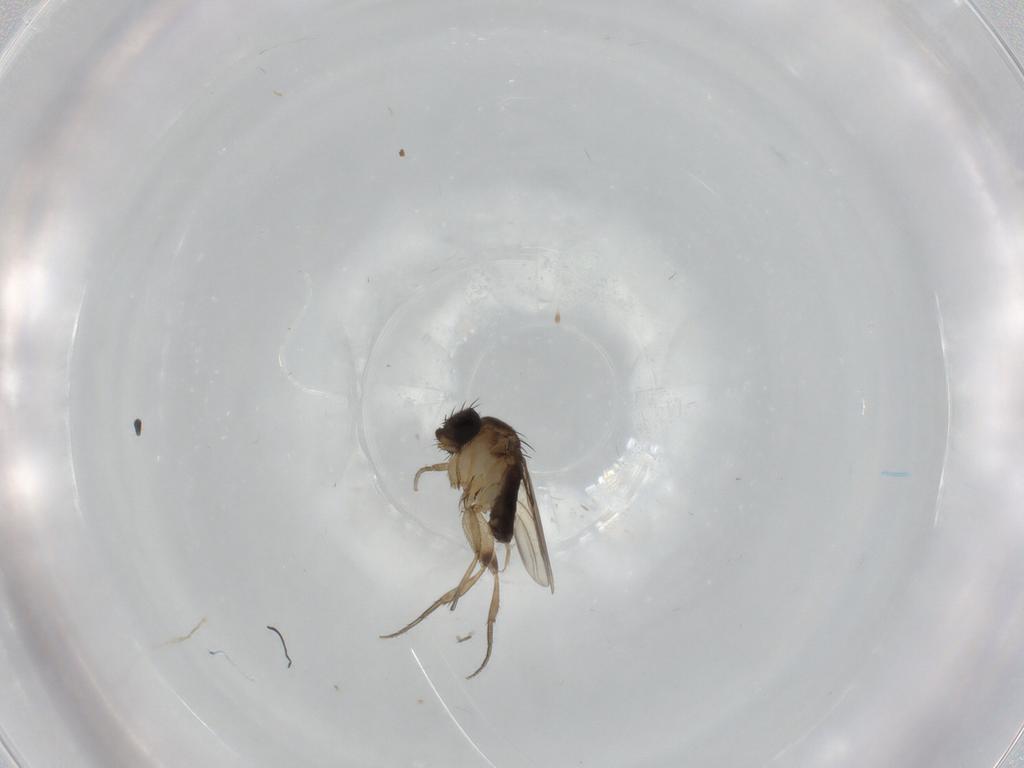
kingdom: Animalia
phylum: Arthropoda
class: Insecta
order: Diptera
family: Phoridae
